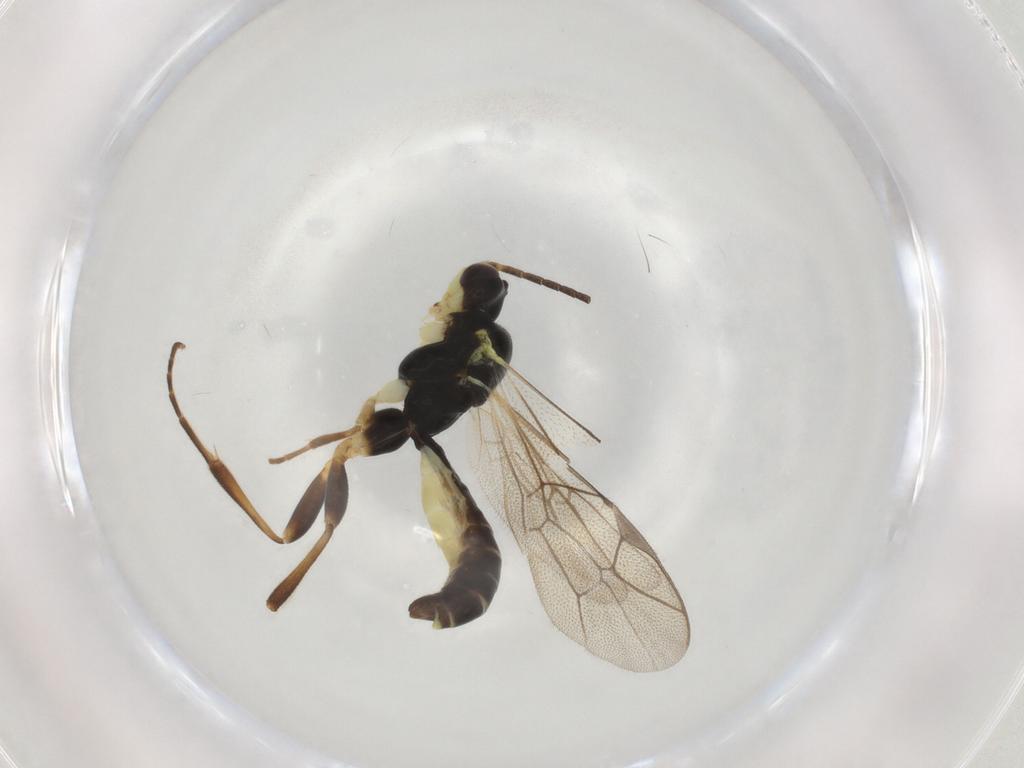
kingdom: Animalia
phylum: Arthropoda
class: Insecta
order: Hymenoptera
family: Ichneumonidae
